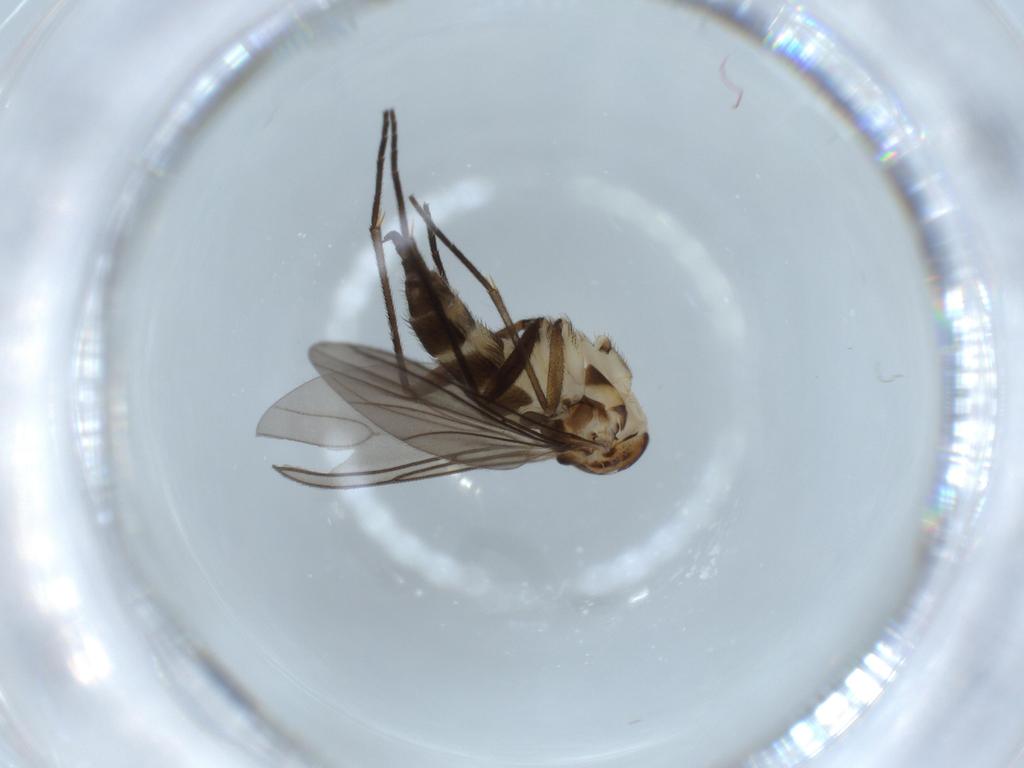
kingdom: Animalia
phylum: Arthropoda
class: Insecta
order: Diptera
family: Sciaridae
